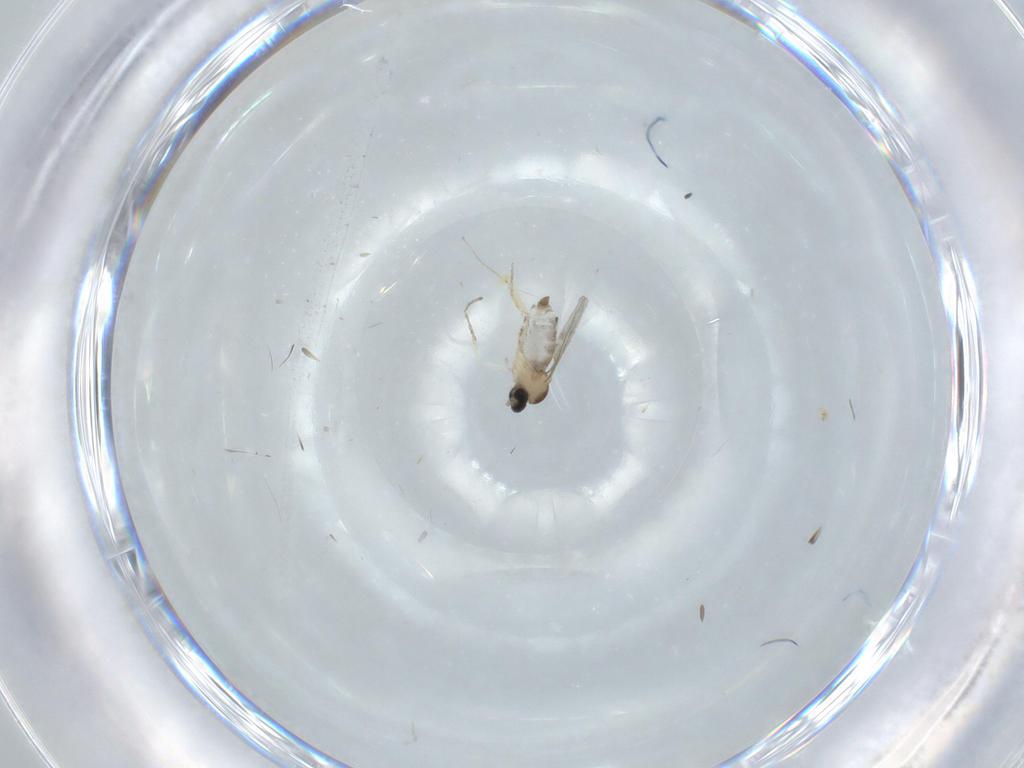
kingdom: Animalia
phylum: Arthropoda
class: Insecta
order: Diptera
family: Cecidomyiidae
